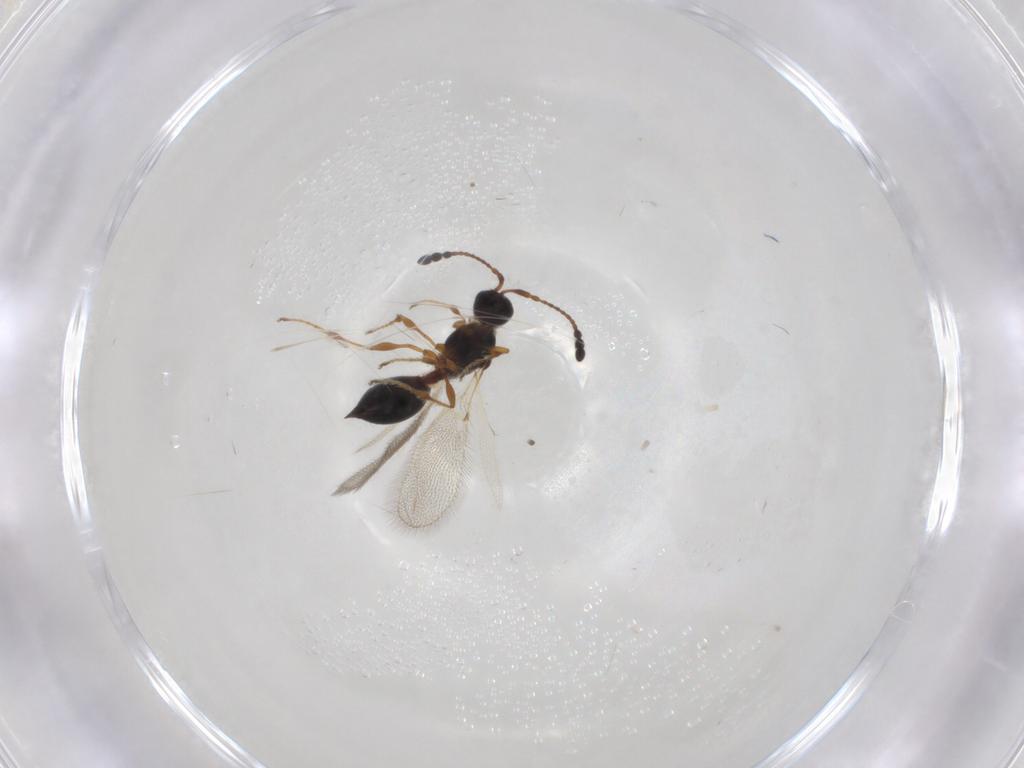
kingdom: Animalia
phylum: Arthropoda
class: Insecta
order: Hymenoptera
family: Diapriidae
